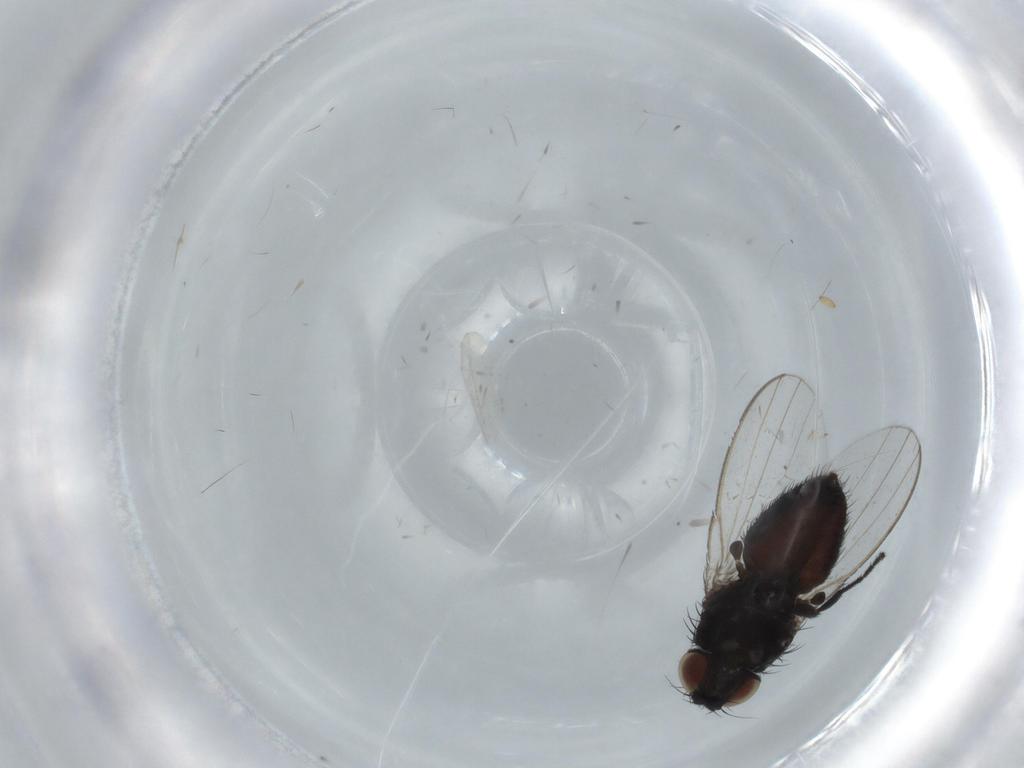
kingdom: Animalia
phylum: Arthropoda
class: Insecta
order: Diptera
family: Milichiidae
